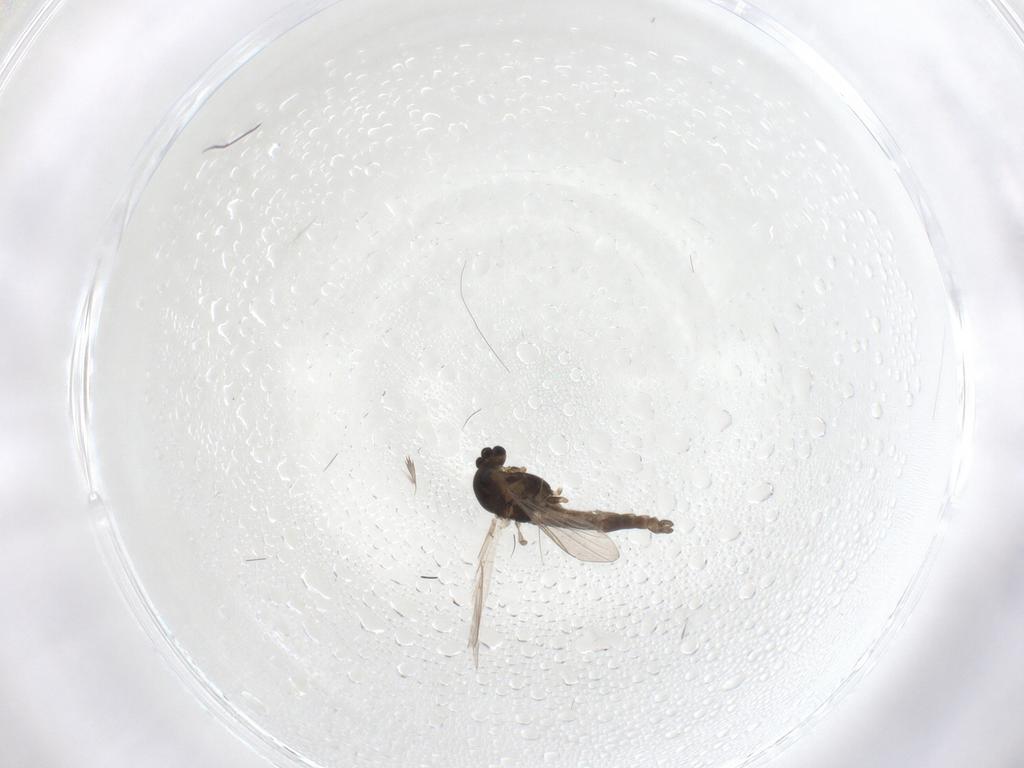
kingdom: Animalia
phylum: Arthropoda
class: Insecta
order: Diptera
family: Chironomidae
